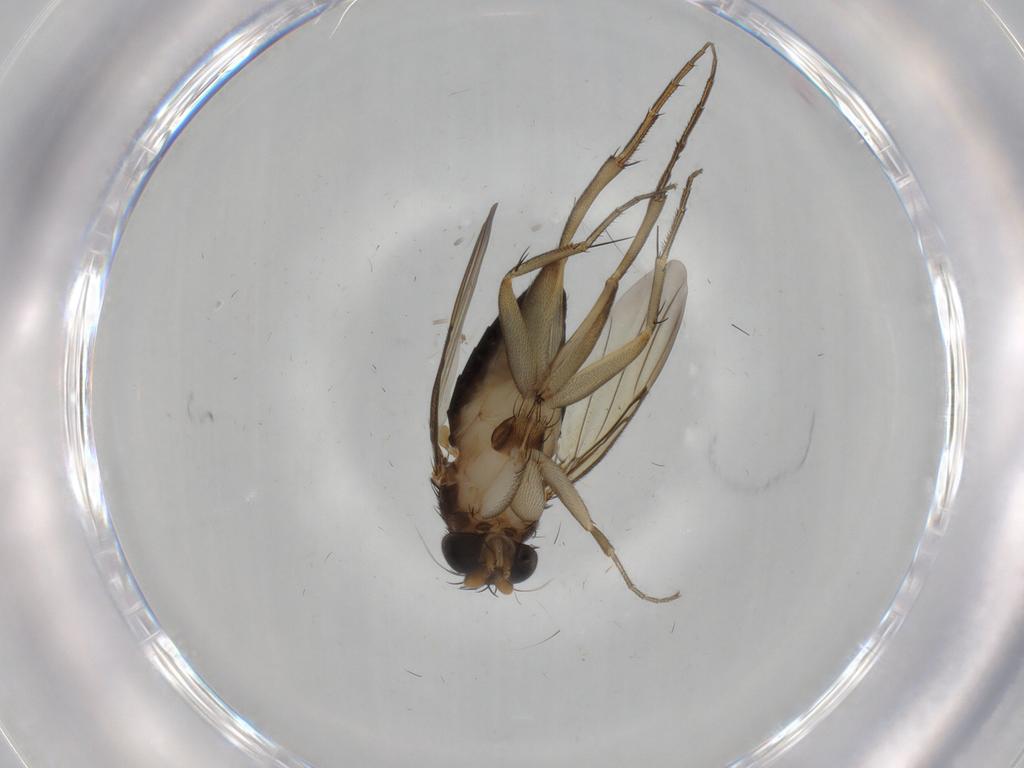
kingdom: Animalia
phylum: Arthropoda
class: Insecta
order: Diptera
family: Phoridae
